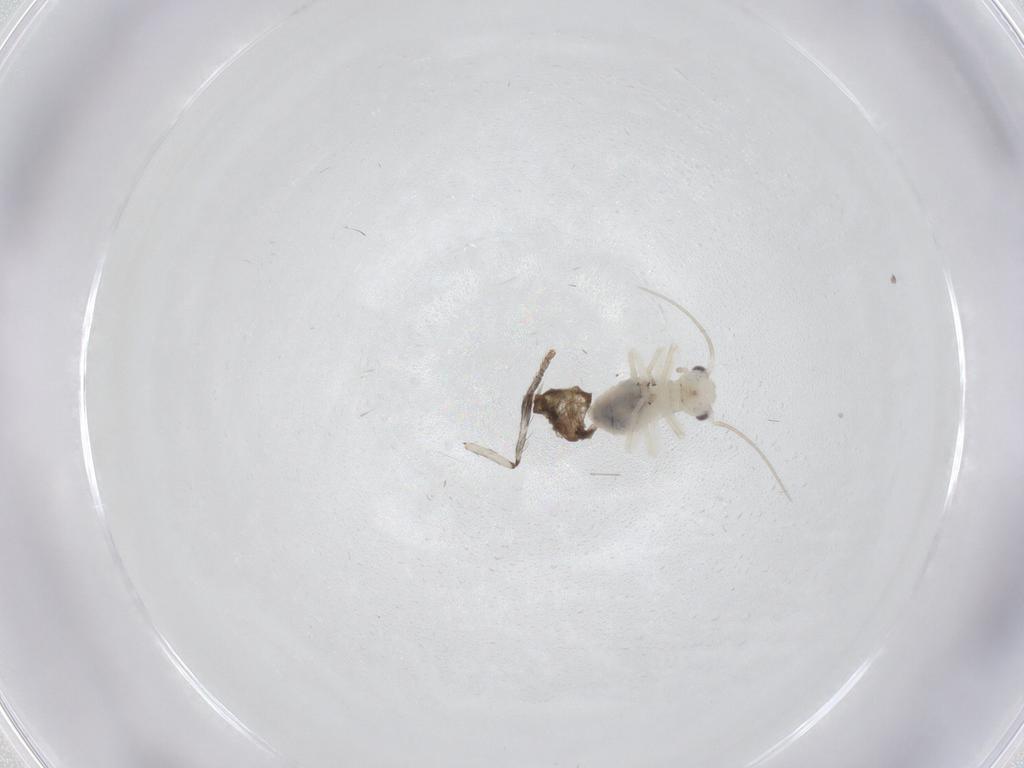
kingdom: Animalia
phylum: Arthropoda
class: Insecta
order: Psocodea
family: Caeciliusidae
